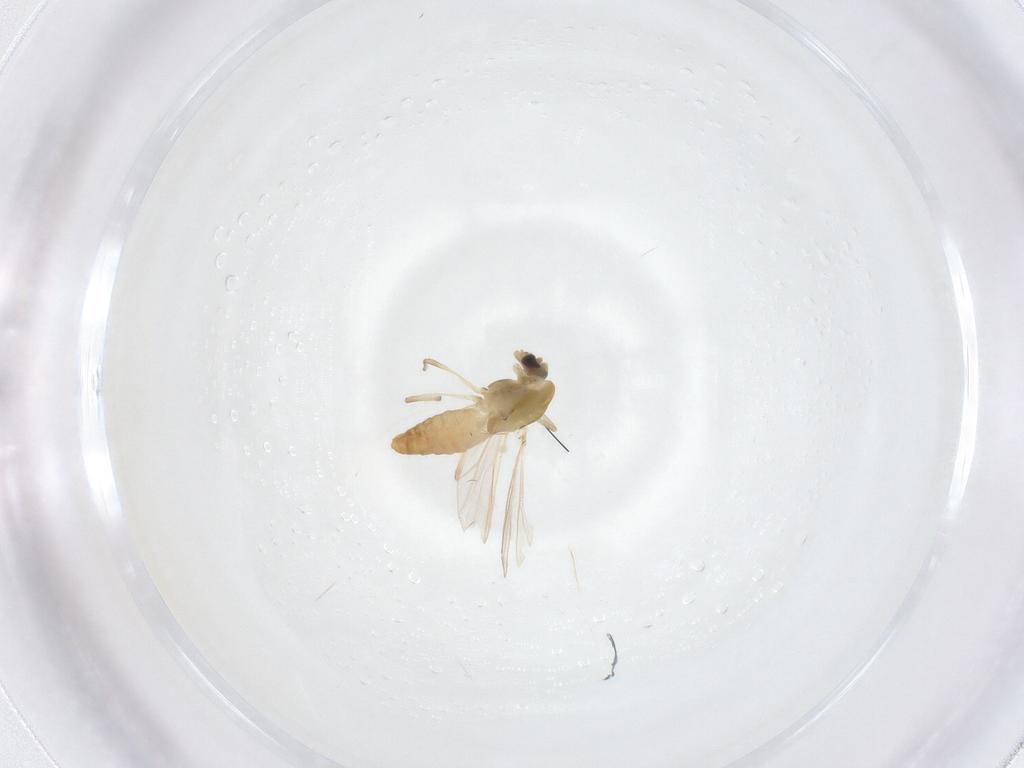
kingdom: Animalia
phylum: Arthropoda
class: Insecta
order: Diptera
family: Chironomidae
